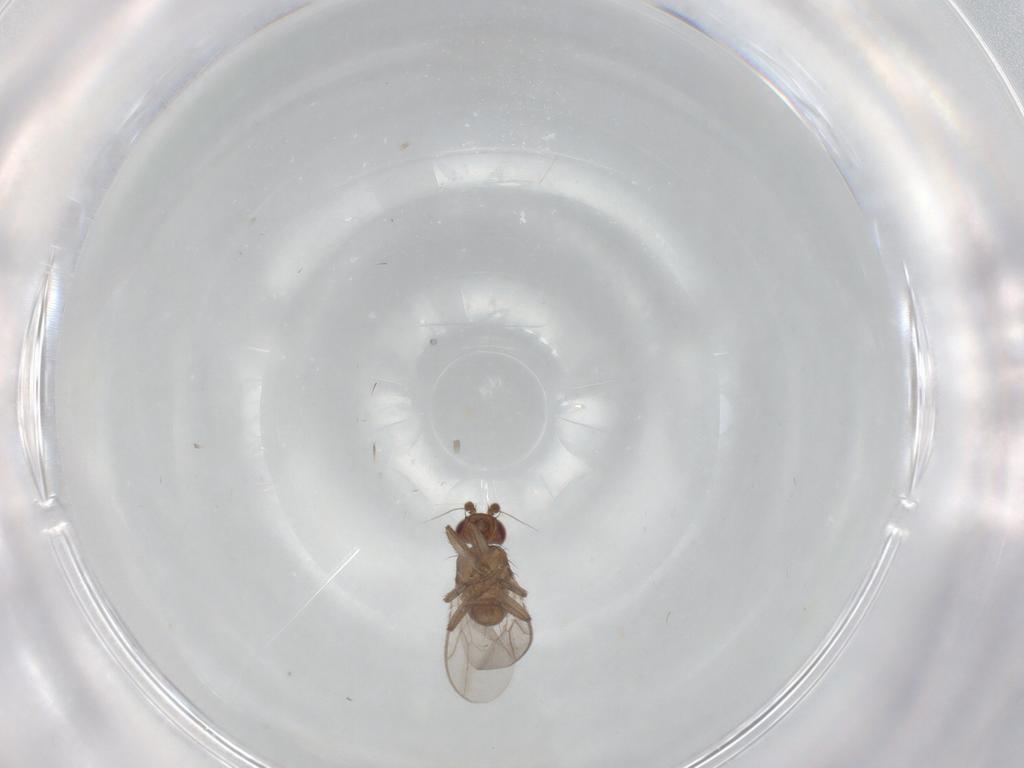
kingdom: Animalia
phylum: Arthropoda
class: Insecta
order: Diptera
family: Sphaeroceridae
